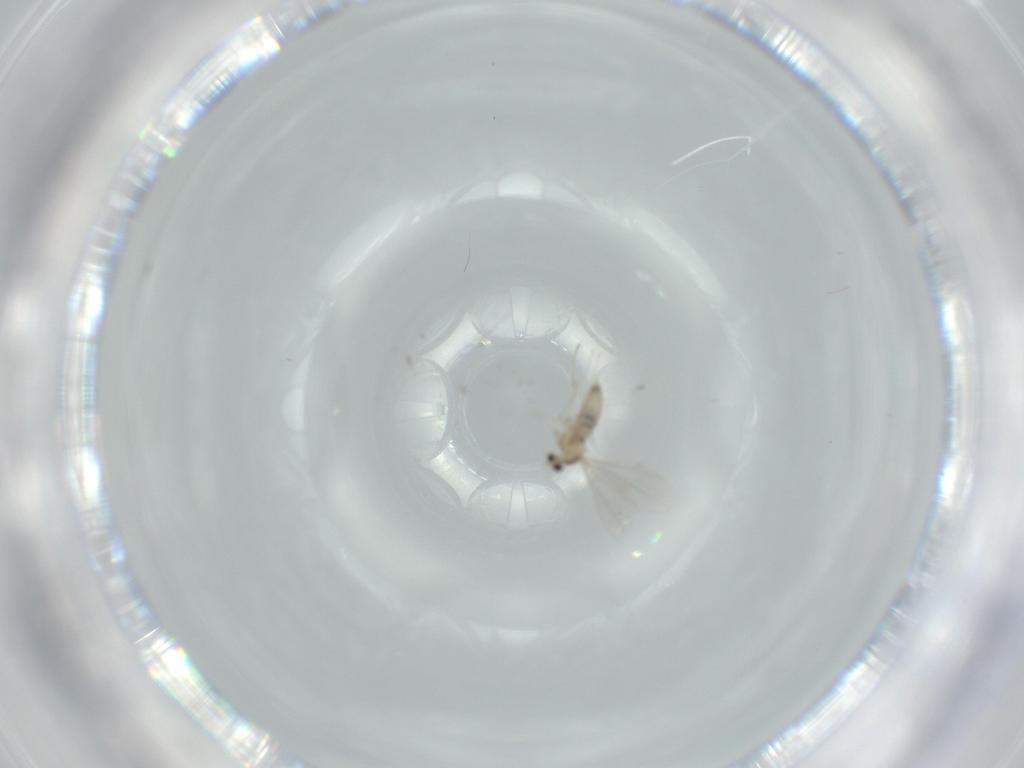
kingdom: Animalia
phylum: Arthropoda
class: Insecta
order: Diptera
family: Cecidomyiidae
